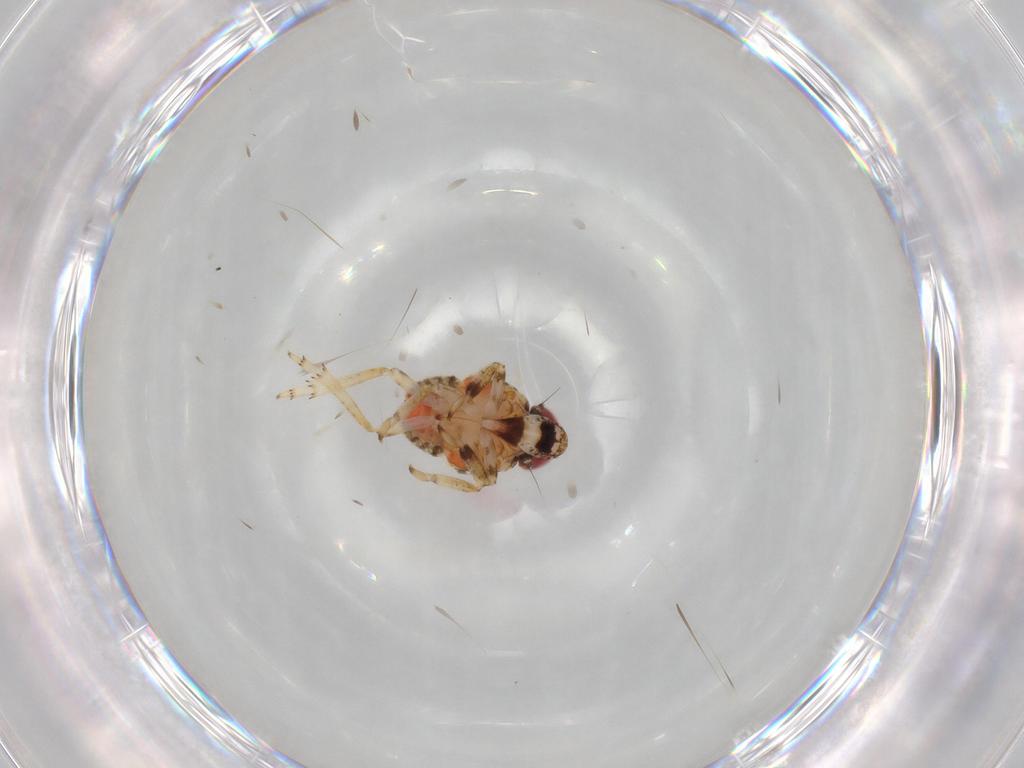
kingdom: Animalia
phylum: Arthropoda
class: Insecta
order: Hemiptera
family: Issidae
